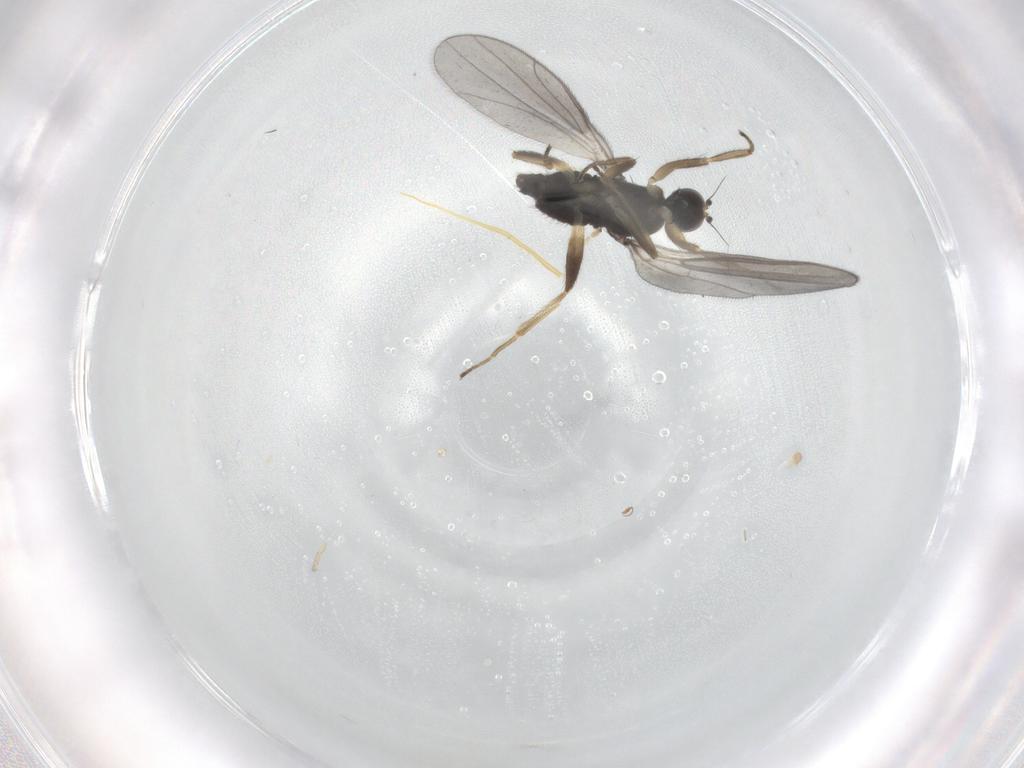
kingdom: Animalia
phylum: Arthropoda
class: Insecta
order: Diptera
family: Hybotidae
